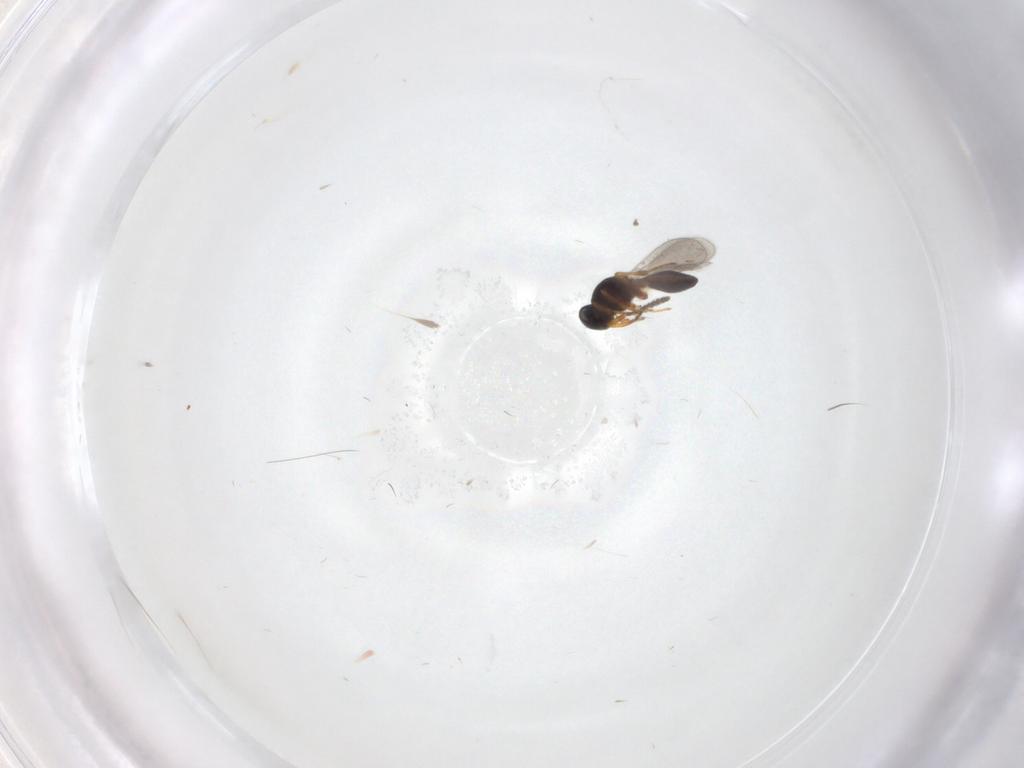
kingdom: Animalia
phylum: Arthropoda
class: Insecta
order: Hymenoptera
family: Platygastridae
